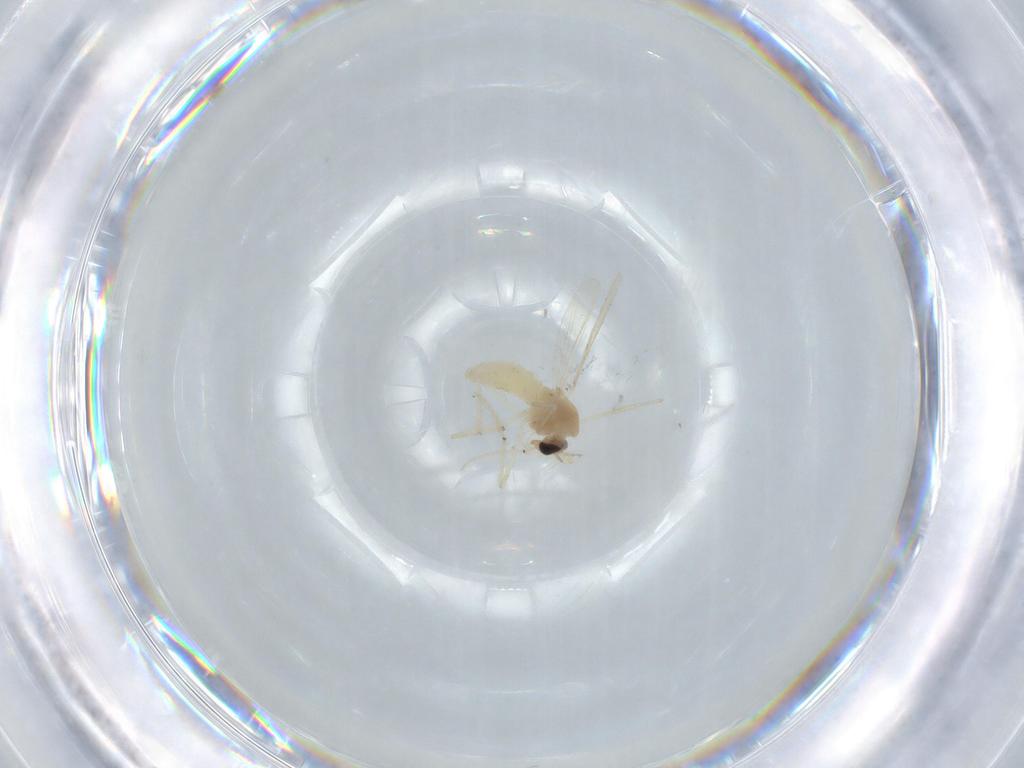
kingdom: Animalia
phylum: Arthropoda
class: Insecta
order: Diptera
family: Chironomidae
